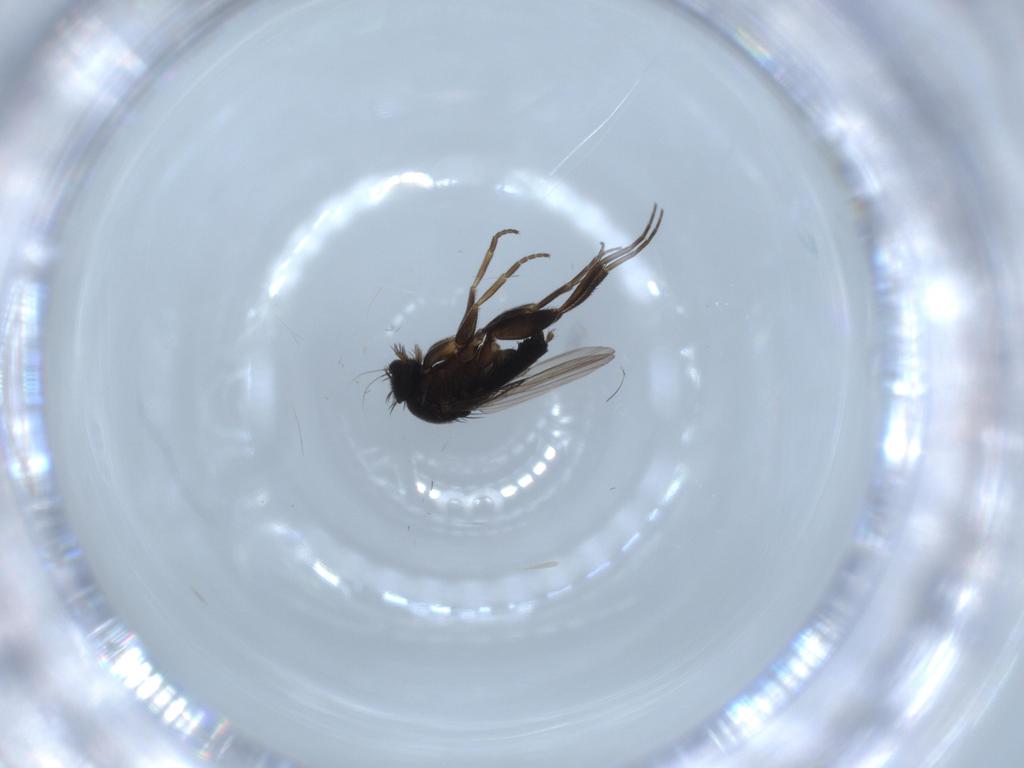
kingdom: Animalia
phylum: Arthropoda
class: Insecta
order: Diptera
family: Phoridae
